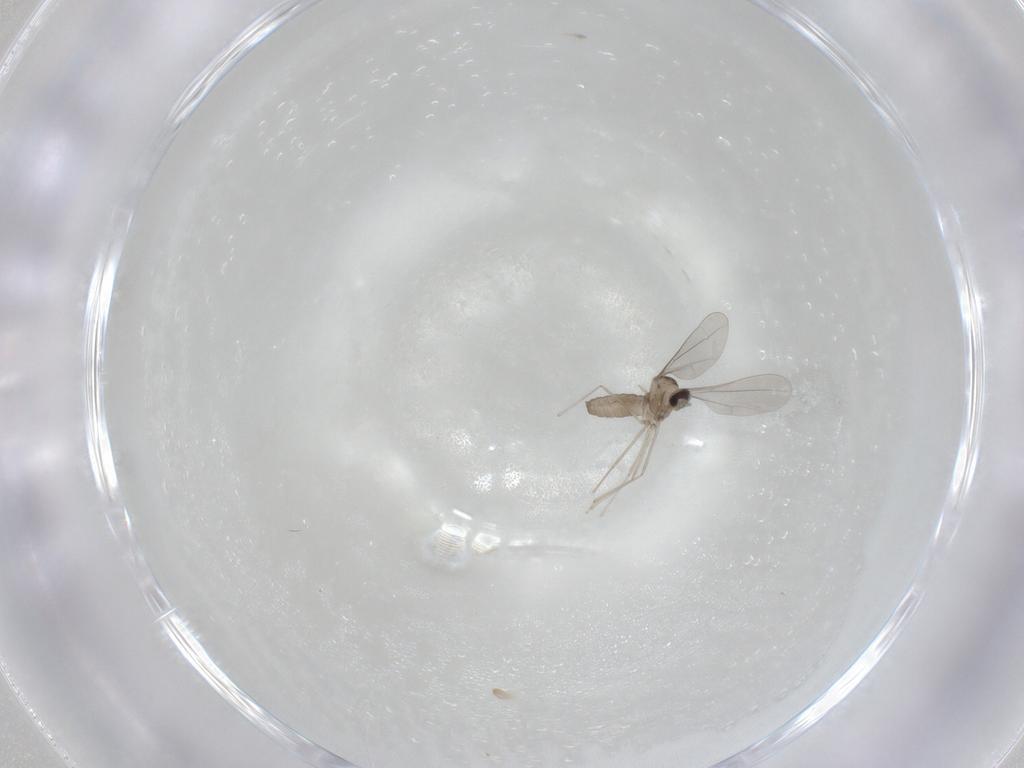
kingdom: Animalia
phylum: Arthropoda
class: Insecta
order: Diptera
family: Cecidomyiidae
